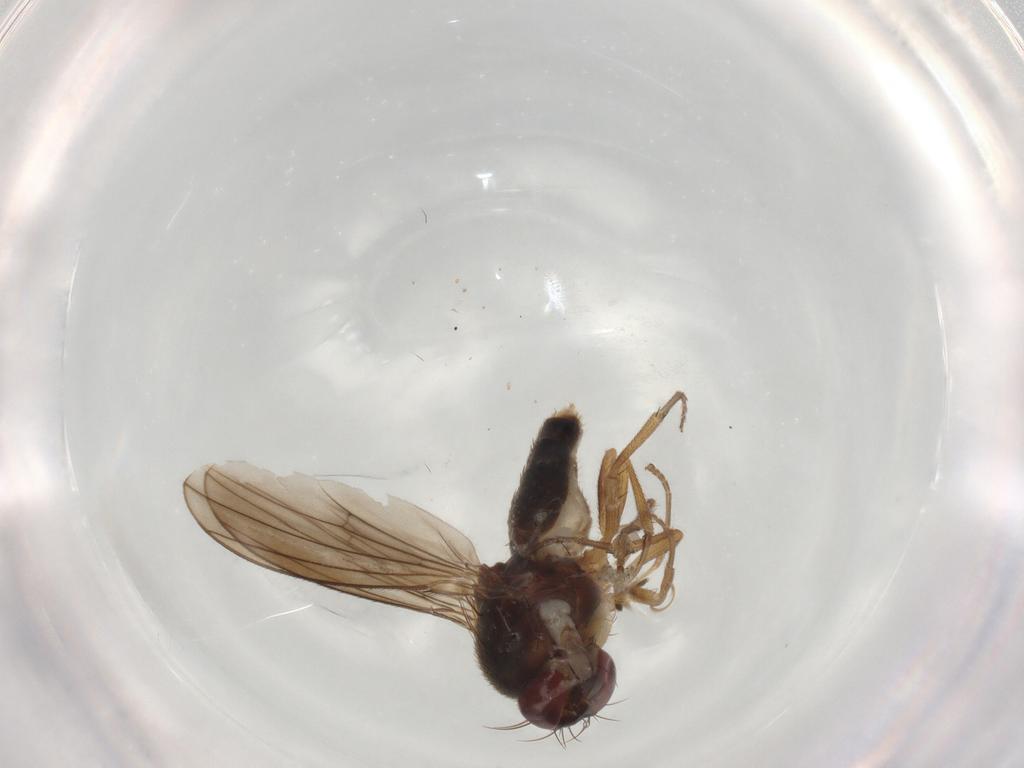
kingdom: Animalia
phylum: Arthropoda
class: Insecta
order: Diptera
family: Diastatidae
